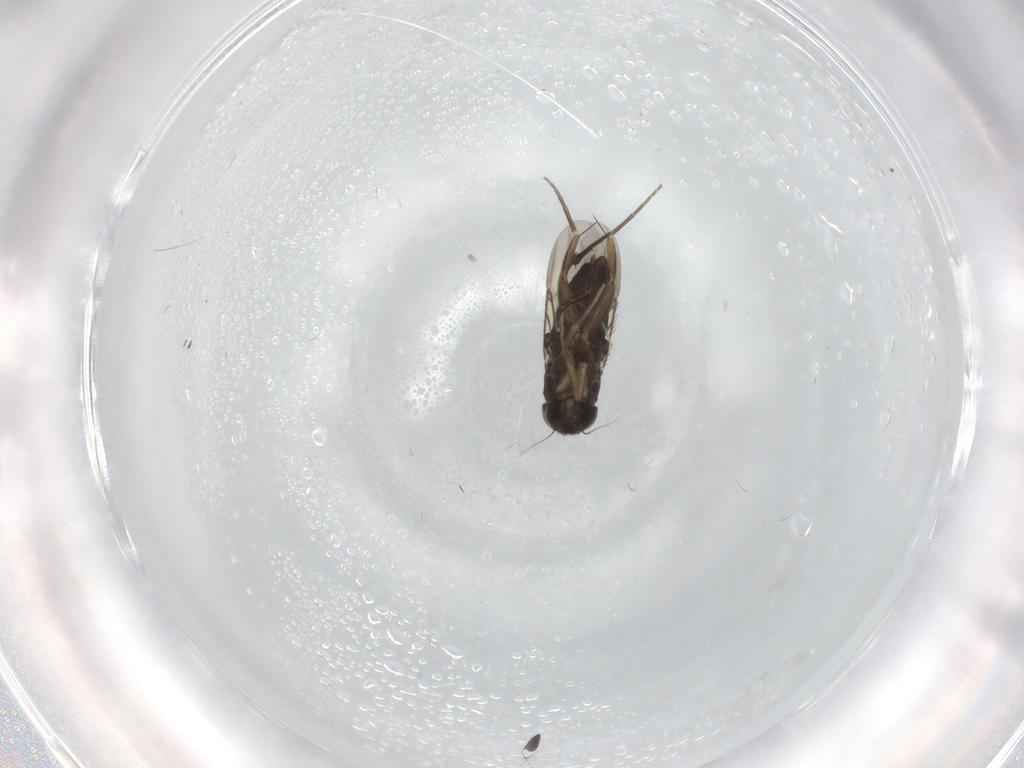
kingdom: Animalia
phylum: Arthropoda
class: Insecta
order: Diptera
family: Phoridae
